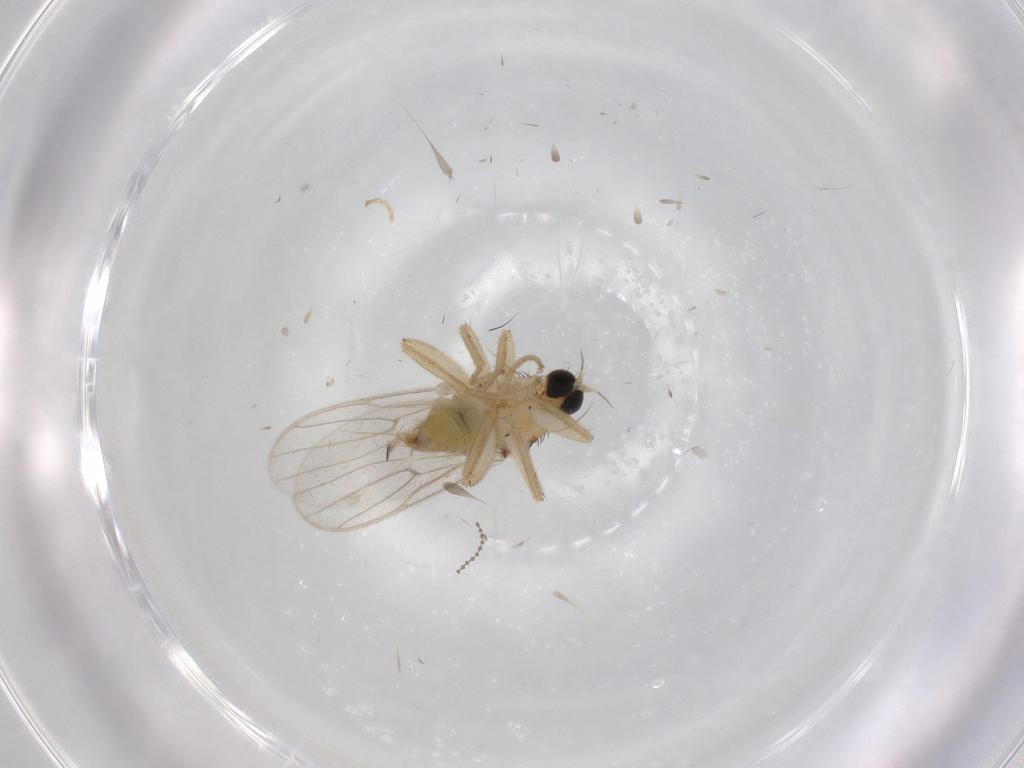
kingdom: Animalia
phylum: Arthropoda
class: Insecta
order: Diptera
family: Hybotidae
